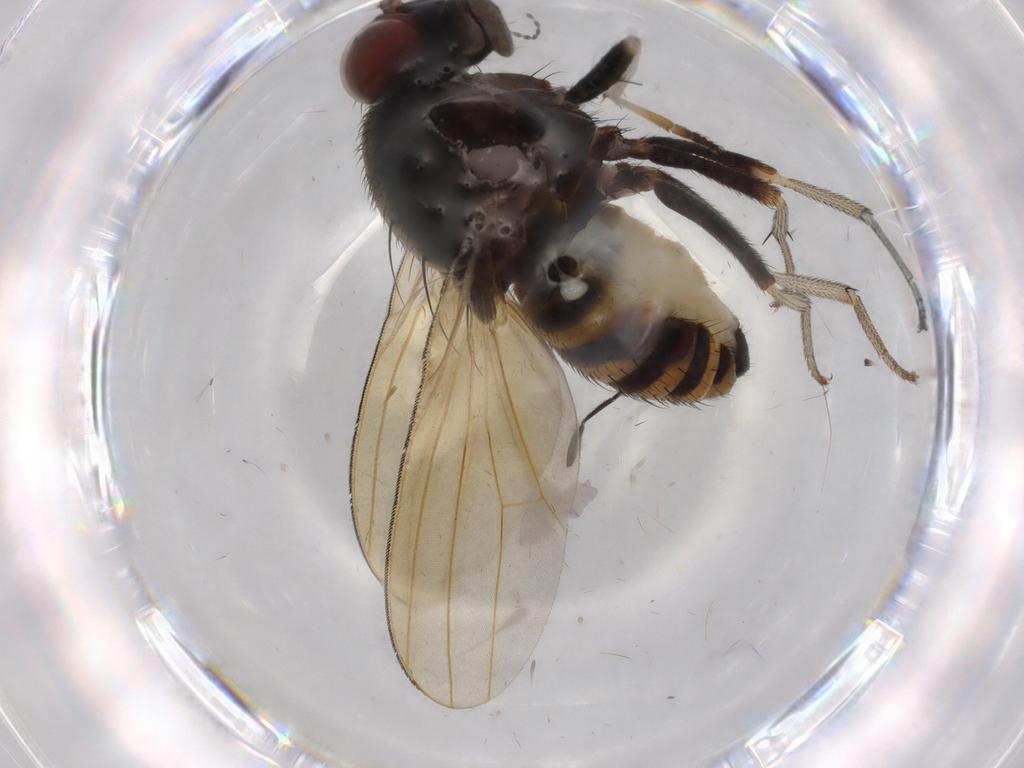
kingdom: Animalia
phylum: Arthropoda
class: Insecta
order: Diptera
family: Cecidomyiidae
